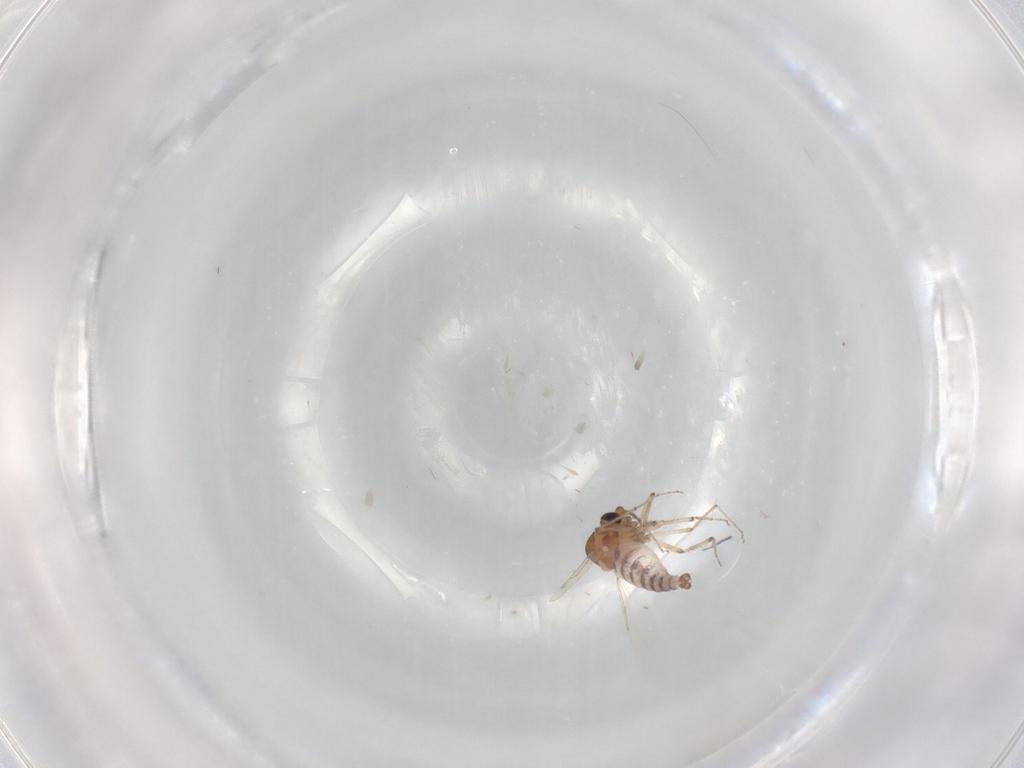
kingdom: Animalia
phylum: Arthropoda
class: Insecta
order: Diptera
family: Ceratopogonidae
